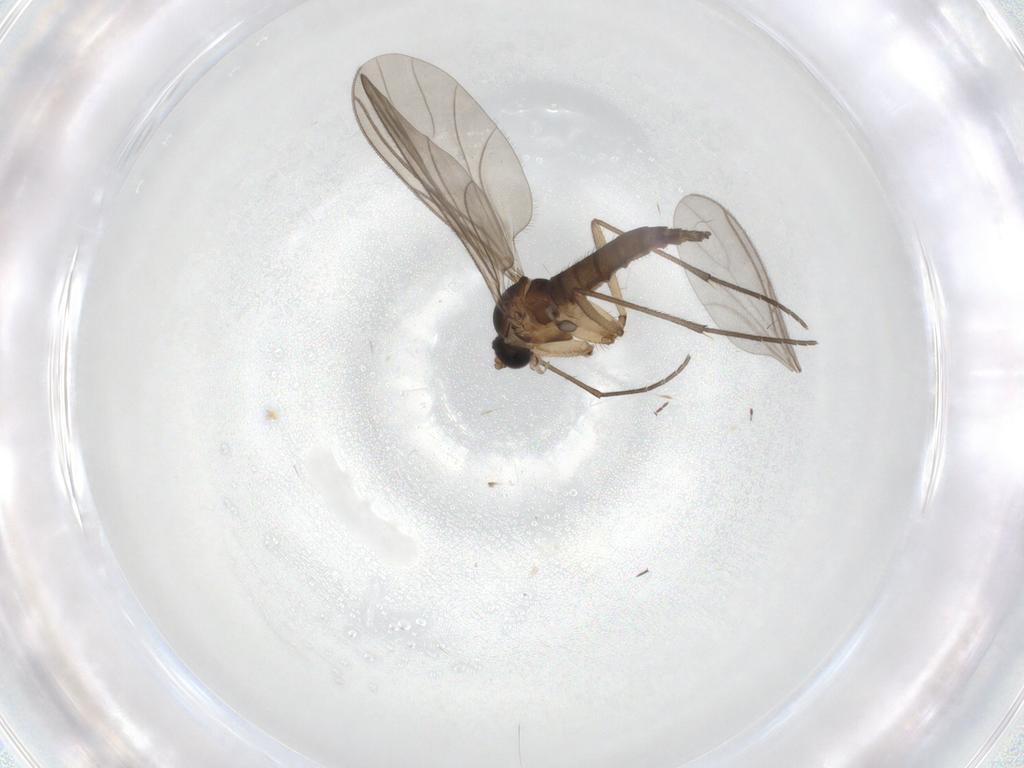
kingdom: Animalia
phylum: Arthropoda
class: Insecta
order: Diptera
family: Sciaridae
